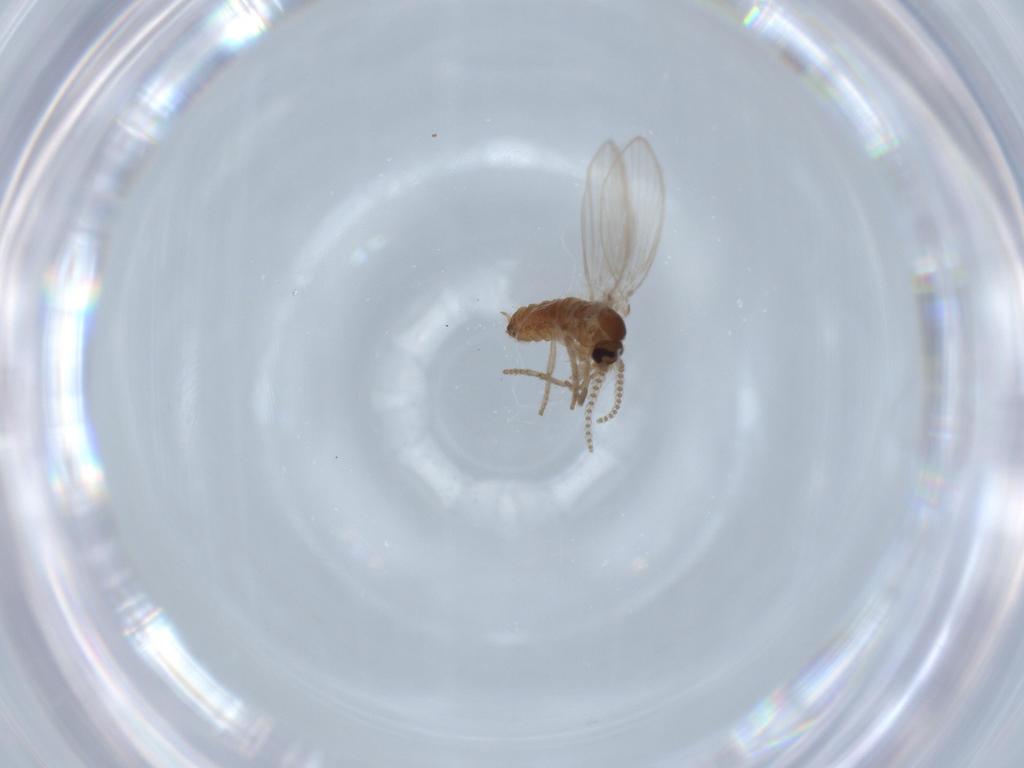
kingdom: Animalia
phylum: Arthropoda
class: Insecta
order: Diptera
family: Psychodidae
